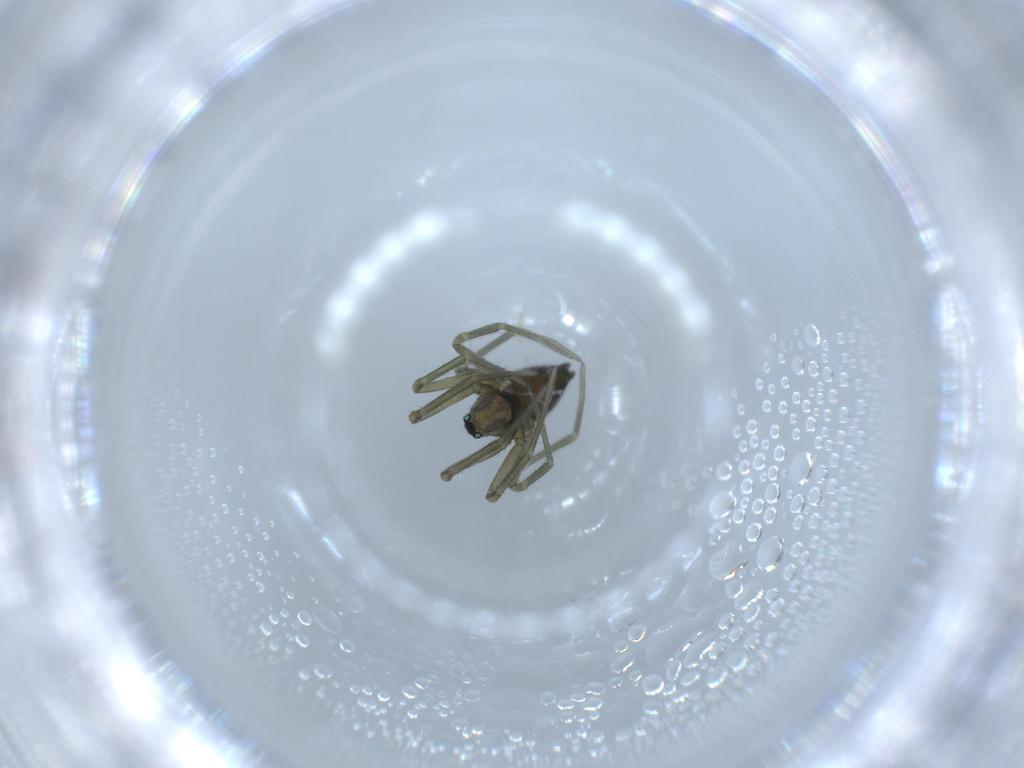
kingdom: Animalia
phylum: Arthropoda
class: Arachnida
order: Araneae
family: Linyphiidae
